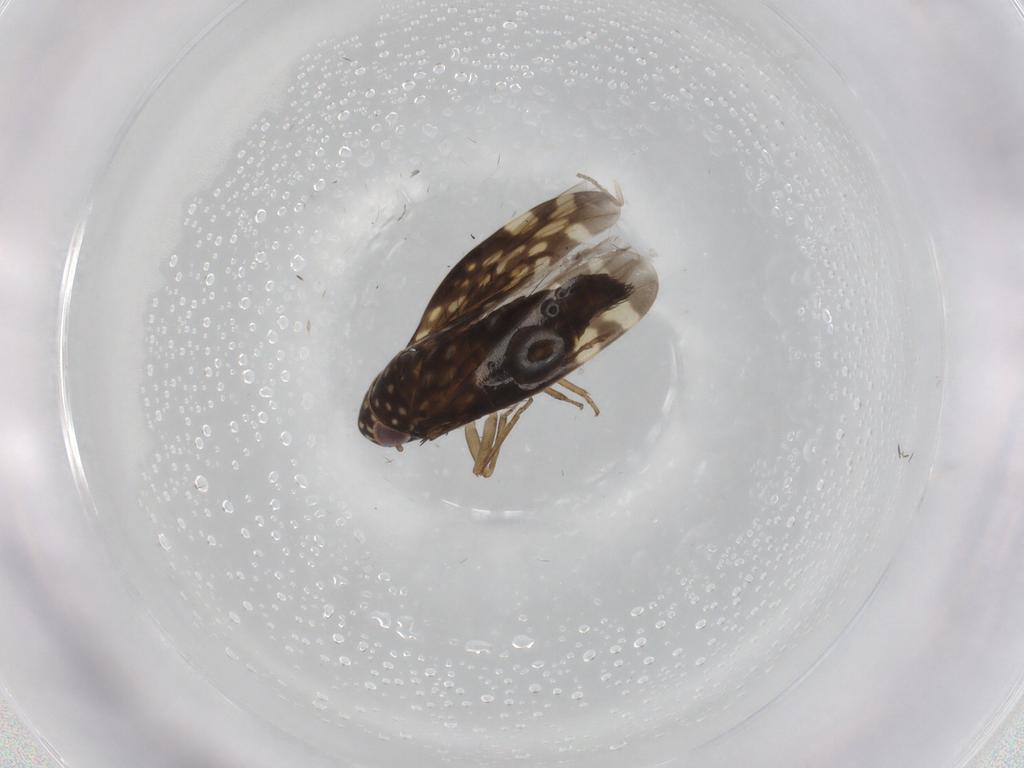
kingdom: Animalia
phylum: Arthropoda
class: Insecta
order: Hemiptera
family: Cicadellidae
